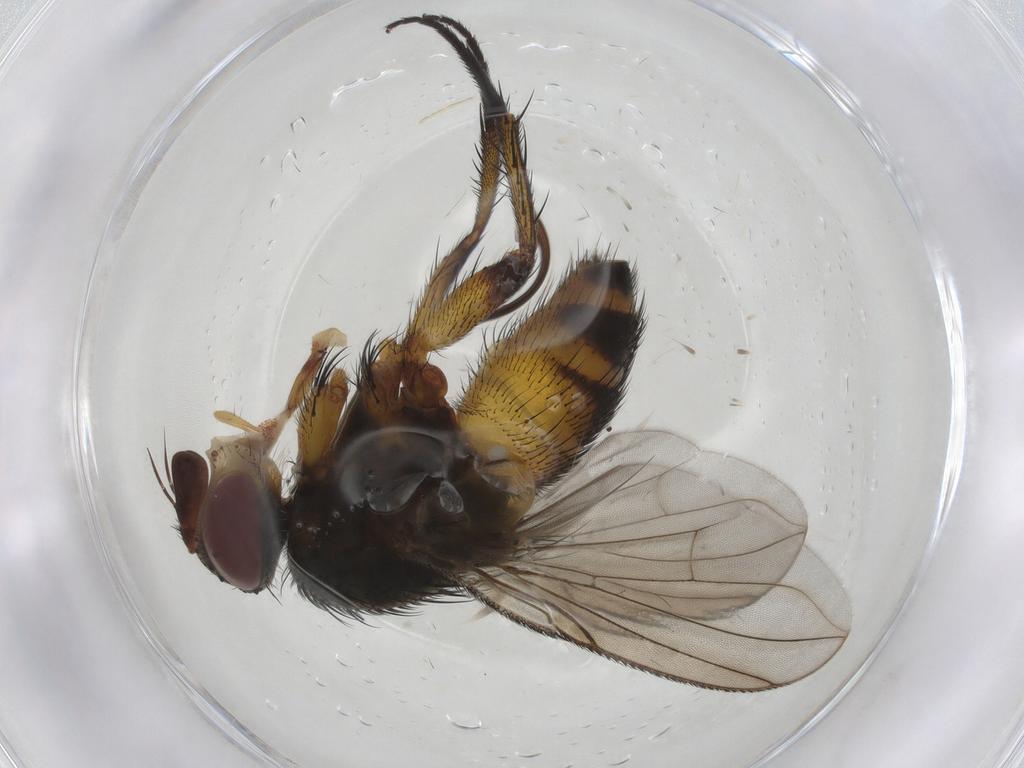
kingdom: Animalia
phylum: Arthropoda
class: Insecta
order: Diptera
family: Tachinidae
